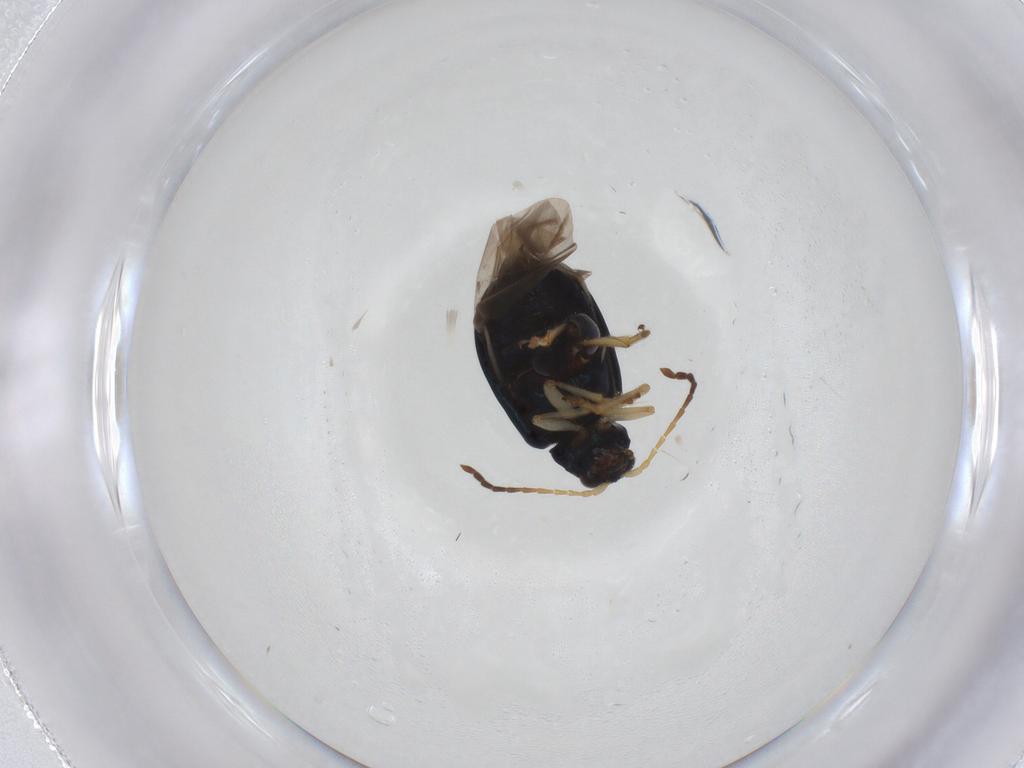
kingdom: Animalia
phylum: Arthropoda
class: Insecta
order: Coleoptera
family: Chrysomelidae
